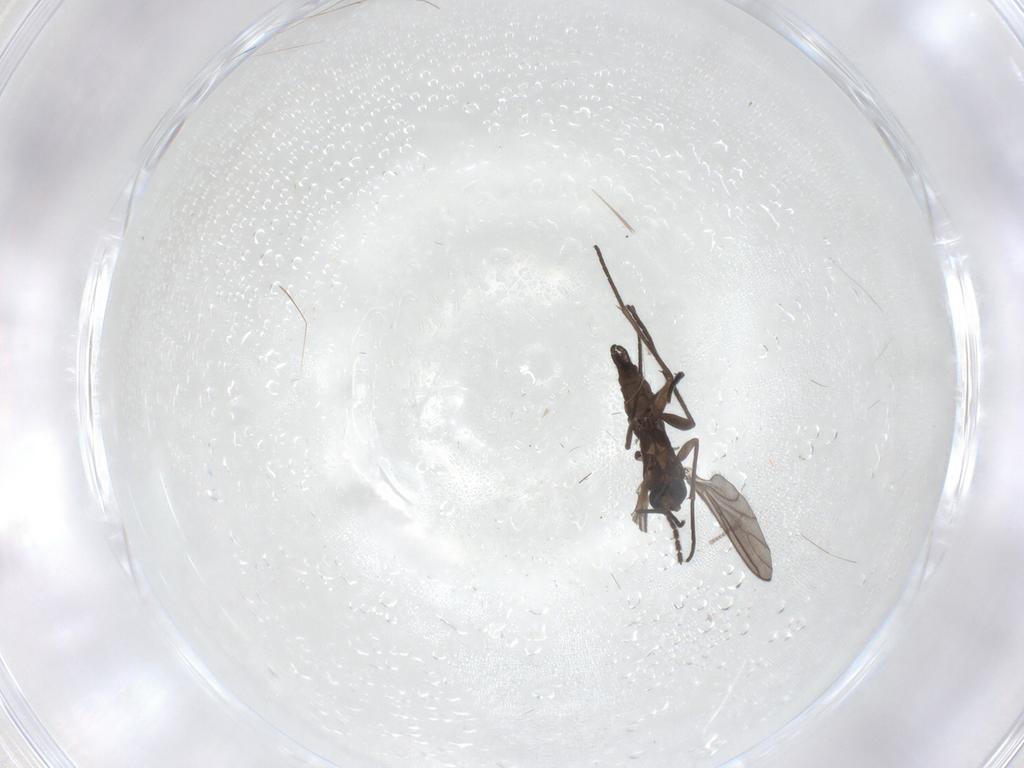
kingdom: Animalia
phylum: Arthropoda
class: Insecta
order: Diptera
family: Sciaridae
